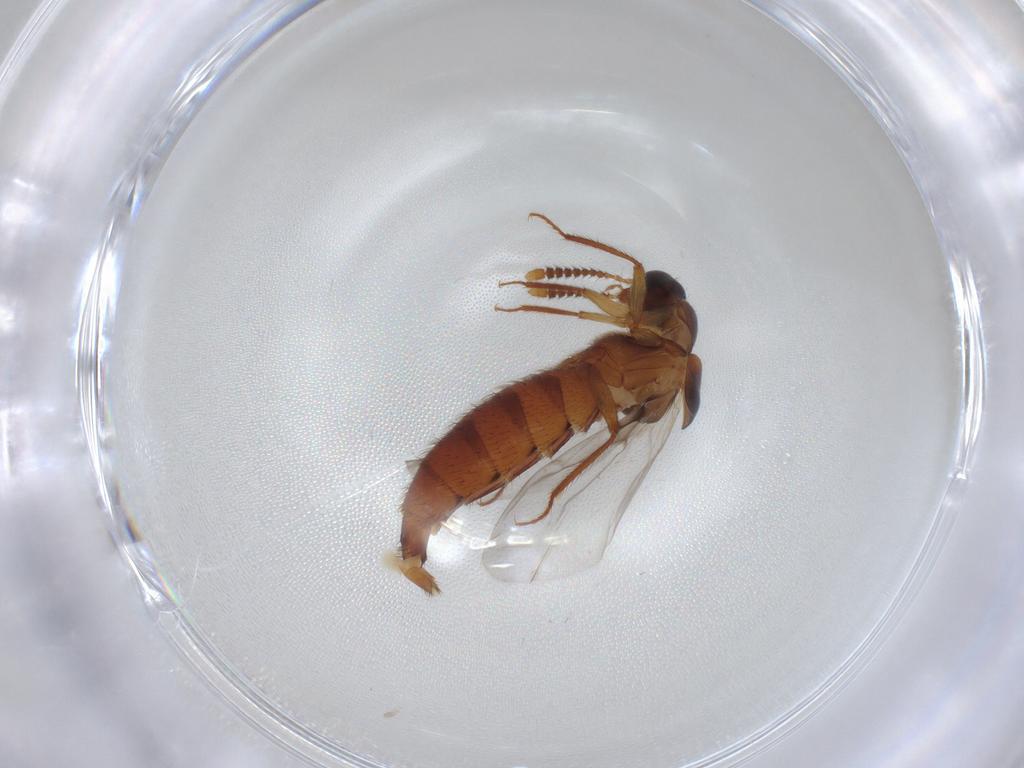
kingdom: Animalia
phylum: Arthropoda
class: Insecta
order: Coleoptera
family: Staphylinidae
